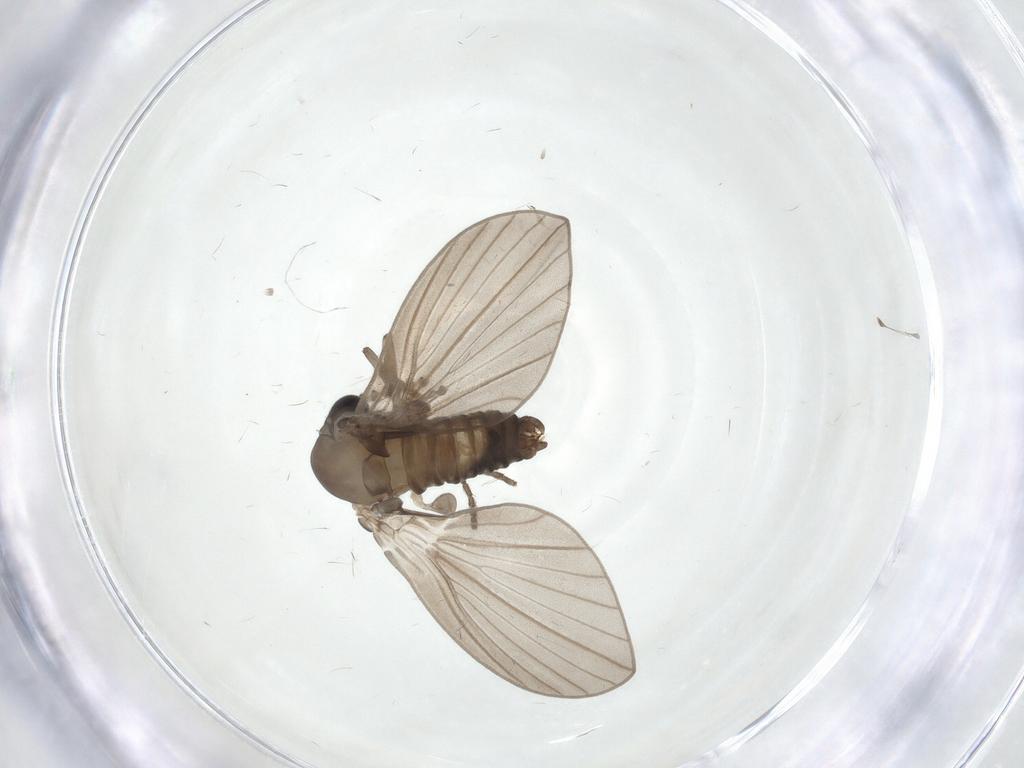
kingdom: Animalia
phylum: Arthropoda
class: Insecta
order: Diptera
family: Psychodidae
